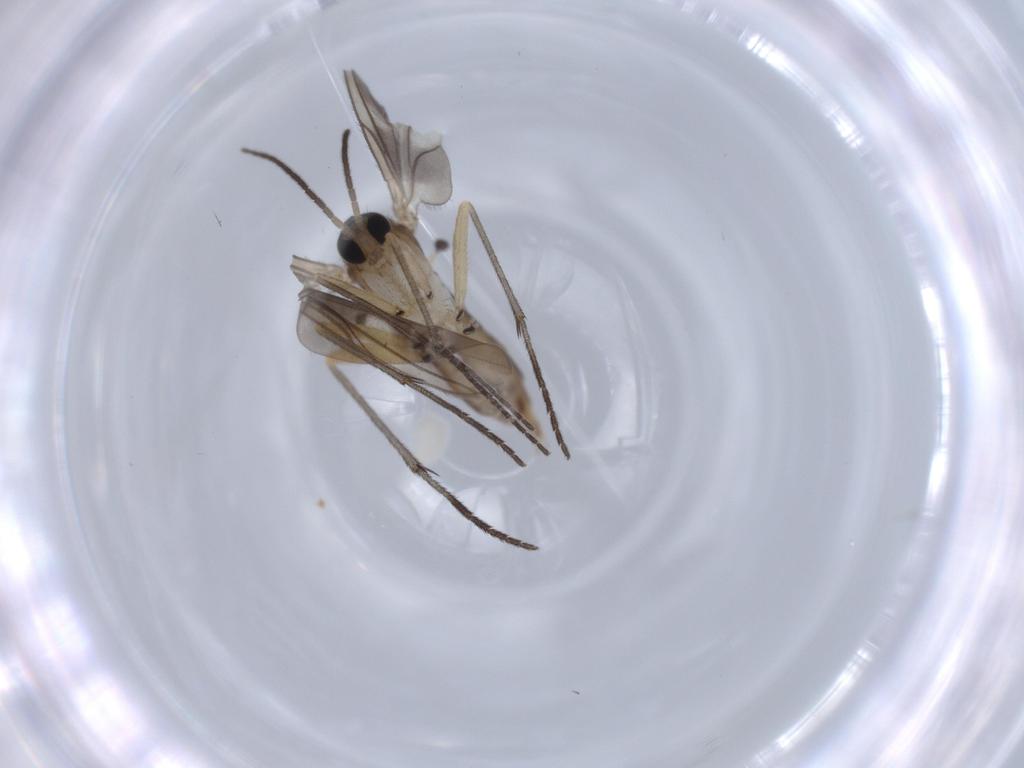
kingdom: Animalia
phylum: Arthropoda
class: Insecta
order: Diptera
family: Sciaridae
